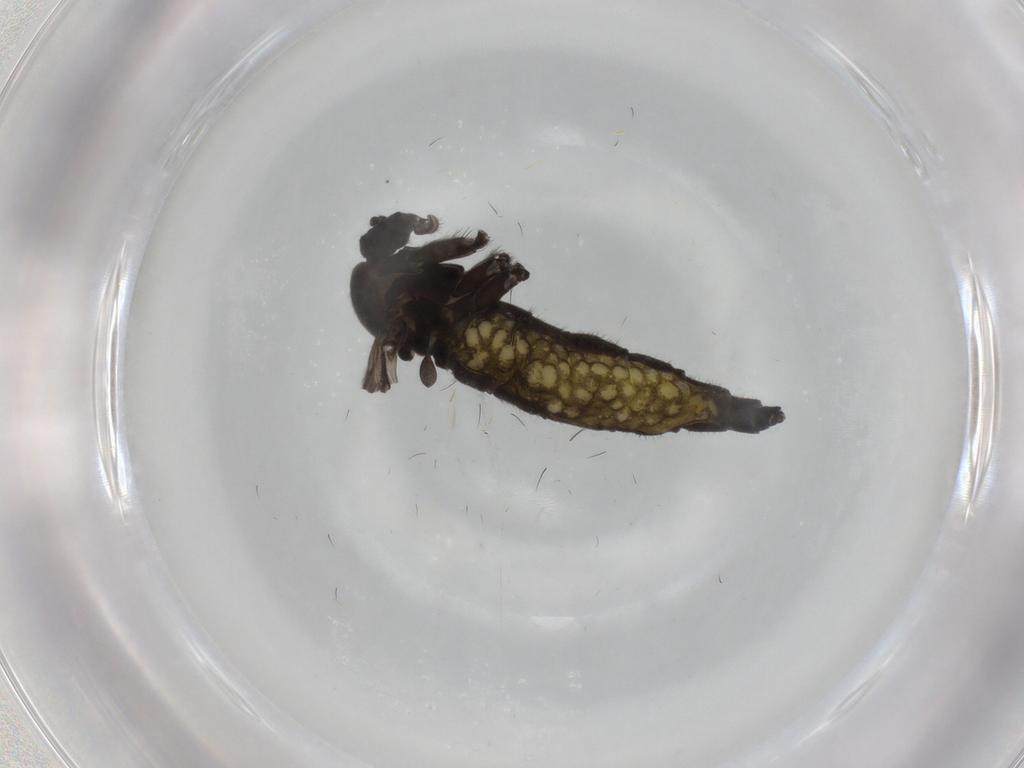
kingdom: Animalia
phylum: Arthropoda
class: Insecta
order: Diptera
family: Sciaridae
